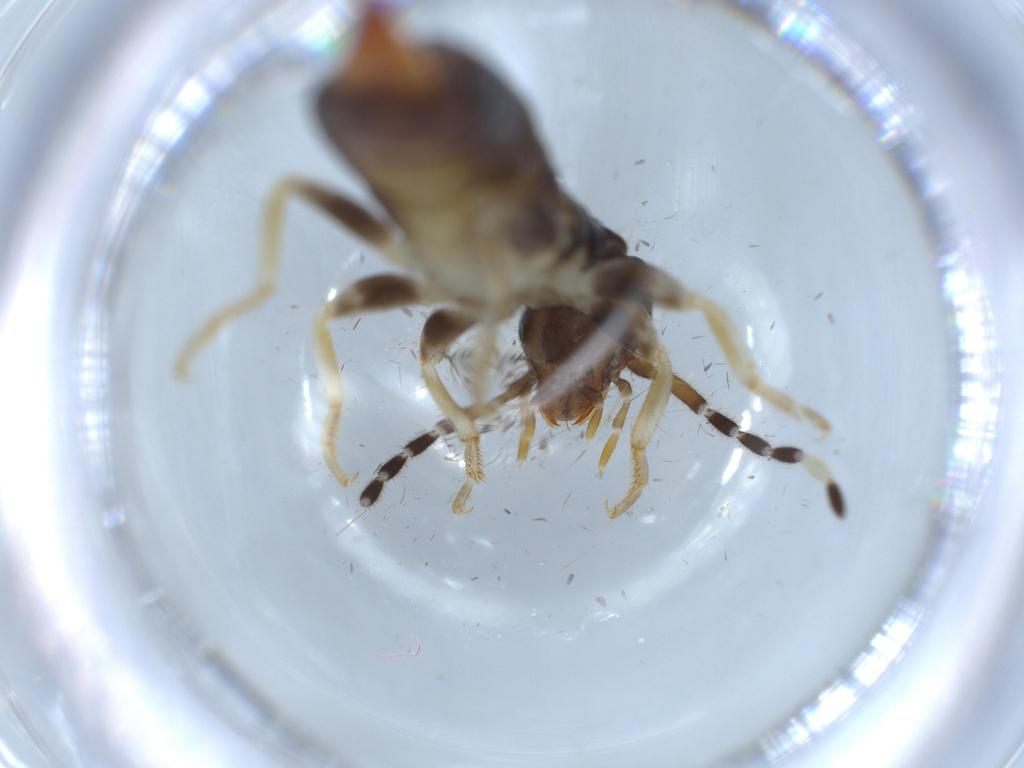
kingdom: Animalia
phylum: Arthropoda
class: Insecta
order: Dermaptera
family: Labiduridae
